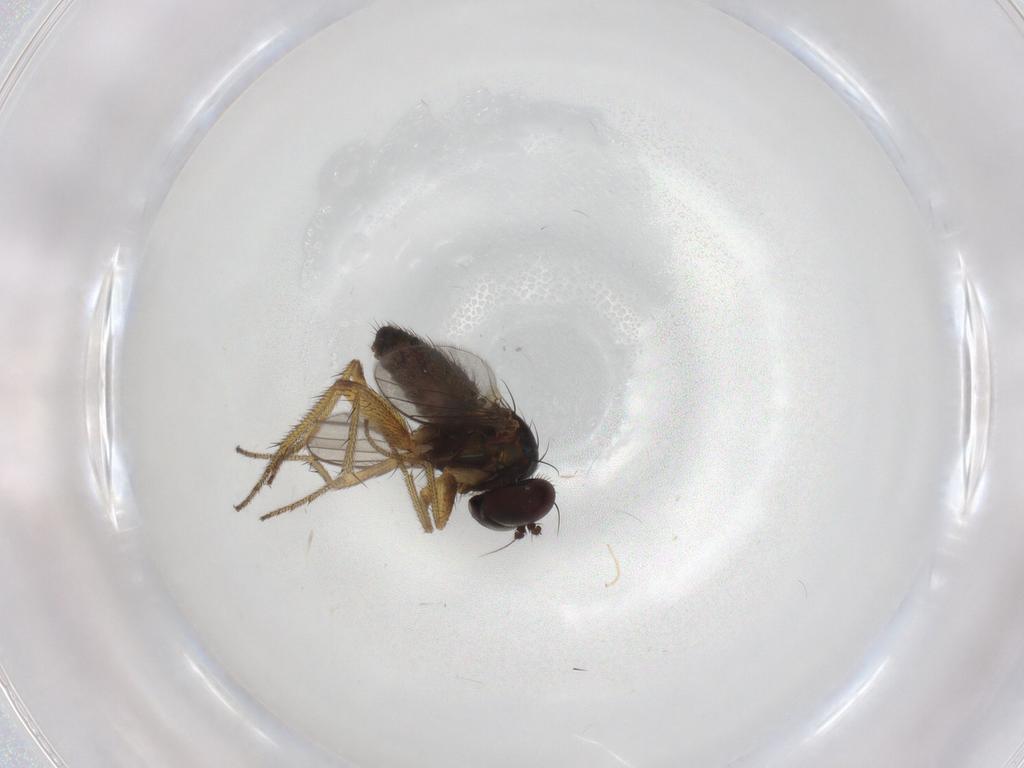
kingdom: Animalia
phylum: Arthropoda
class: Insecta
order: Diptera
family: Dolichopodidae
